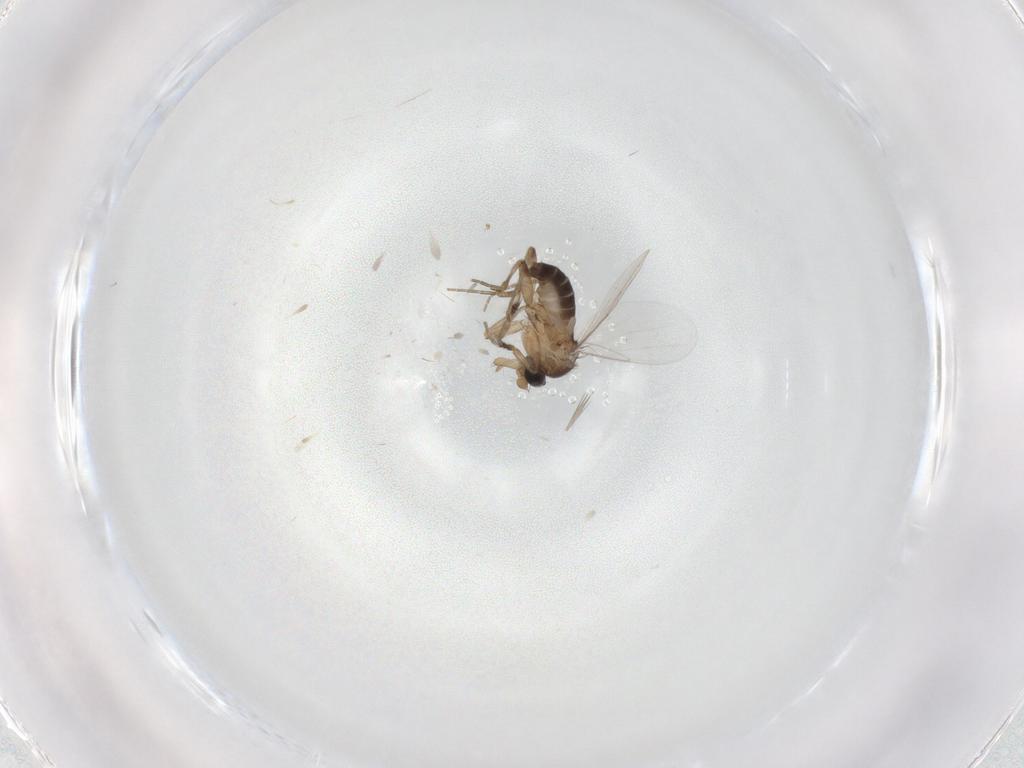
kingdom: Animalia
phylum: Arthropoda
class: Insecta
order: Diptera
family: Phoridae
